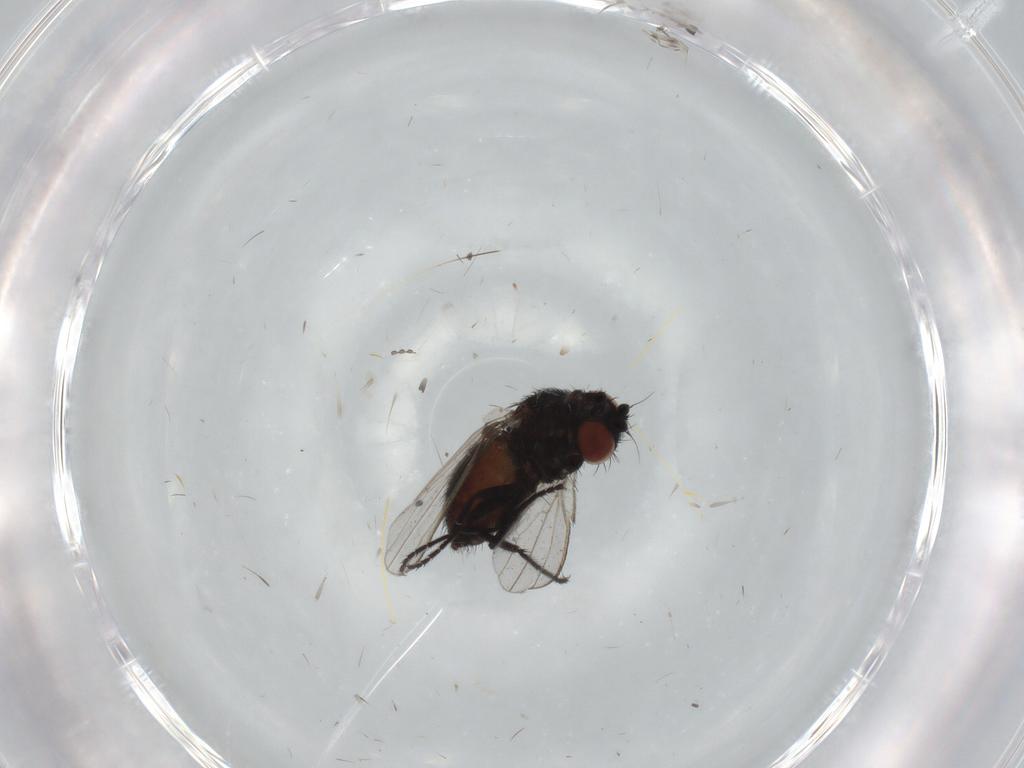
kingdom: Animalia
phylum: Arthropoda
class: Insecta
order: Diptera
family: Cecidomyiidae
